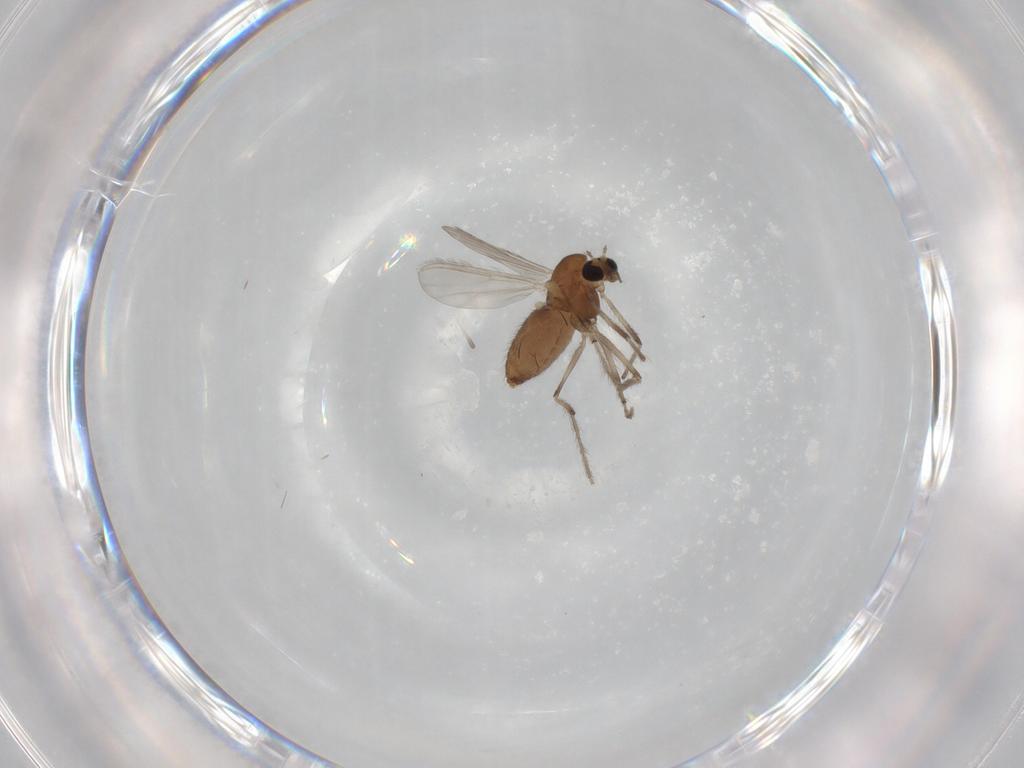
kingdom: Animalia
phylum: Arthropoda
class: Insecta
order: Diptera
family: Chironomidae
